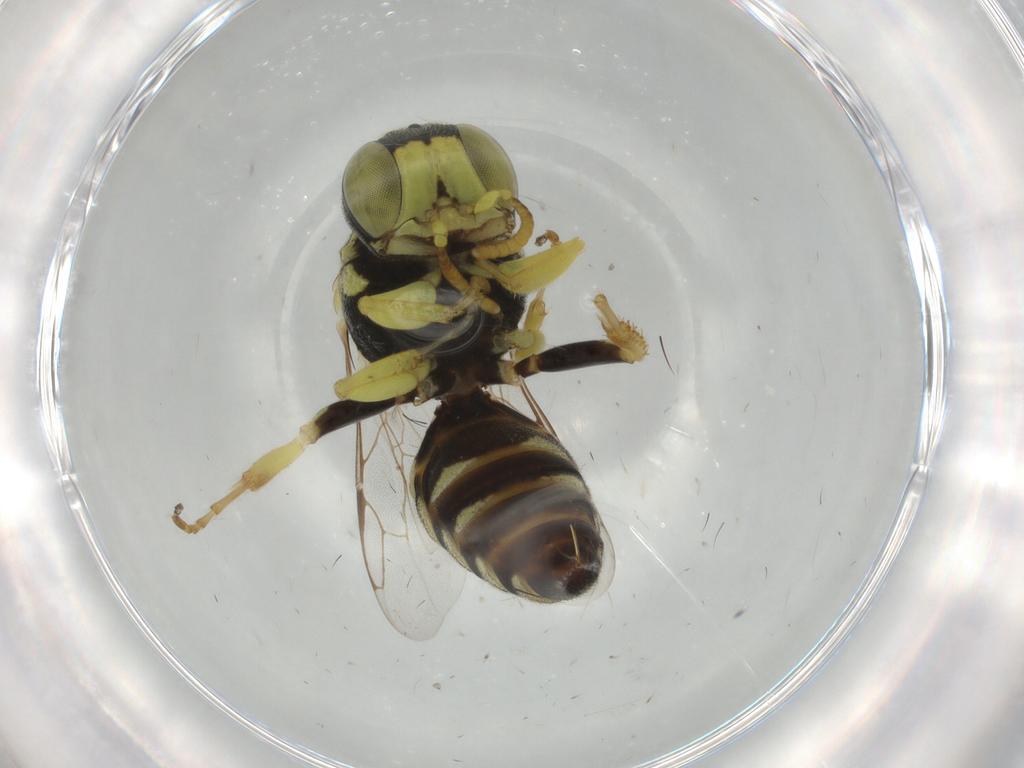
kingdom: Animalia
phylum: Arthropoda
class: Insecta
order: Hymenoptera
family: Crabronidae
